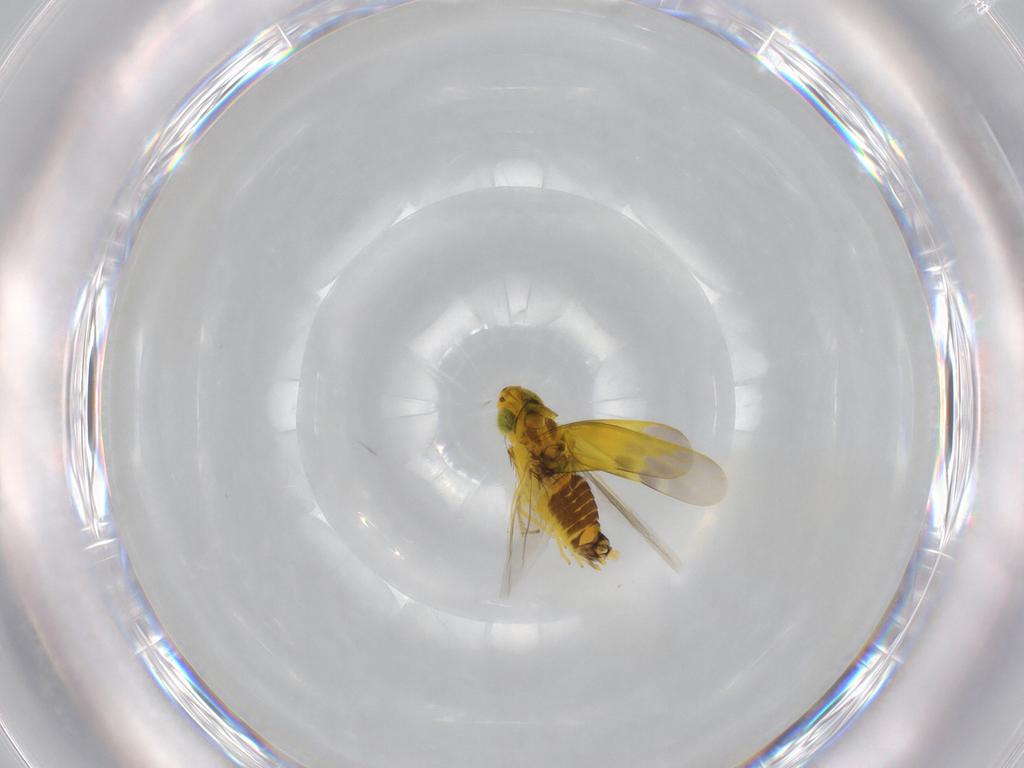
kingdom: Animalia
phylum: Arthropoda
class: Insecta
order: Hemiptera
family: Cicadellidae
